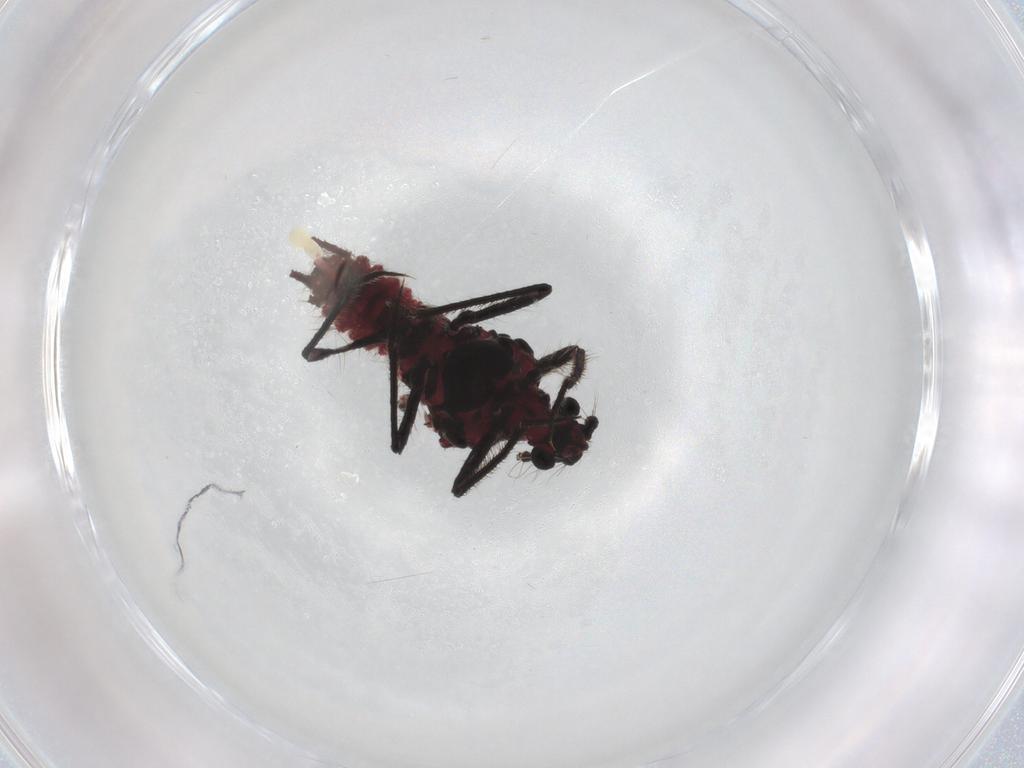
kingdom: Animalia
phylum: Arthropoda
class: Insecta
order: Hemiptera
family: Monophlebidae
